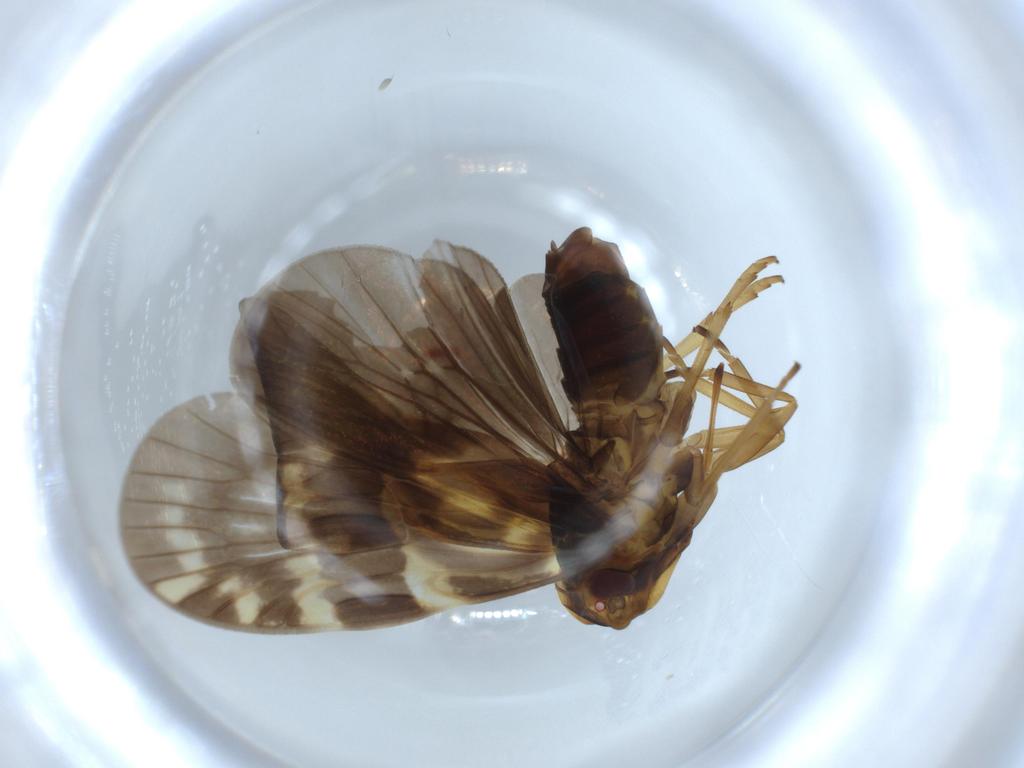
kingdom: Animalia
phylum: Arthropoda
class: Insecta
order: Hemiptera
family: Cixiidae
